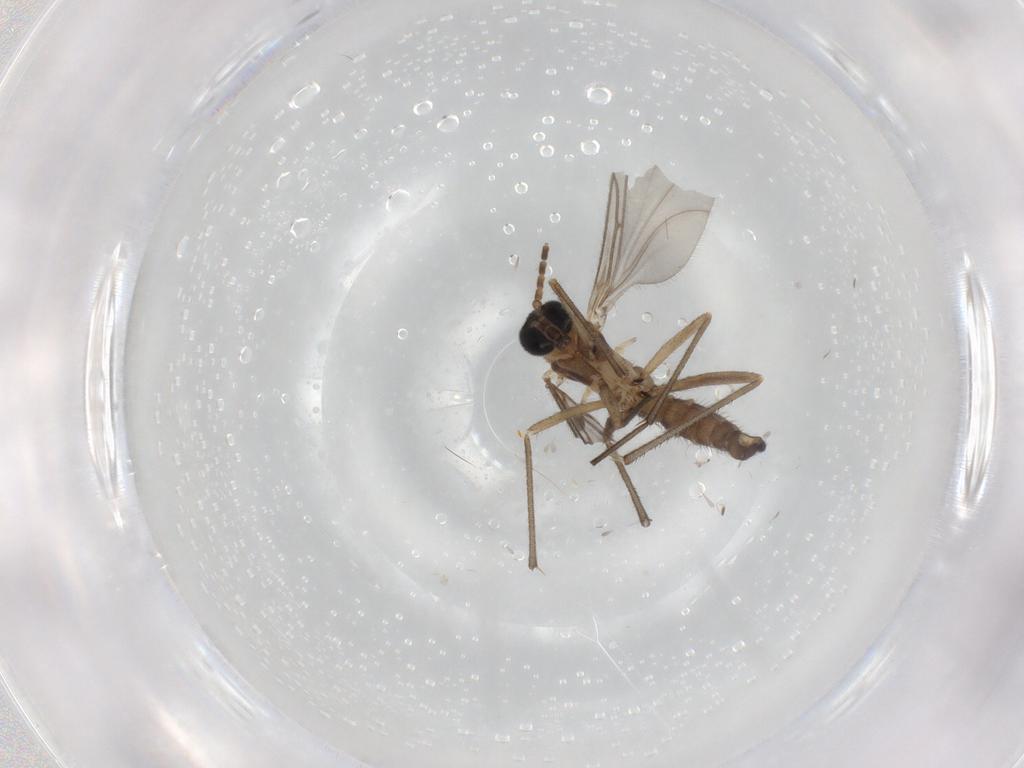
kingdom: Animalia
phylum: Arthropoda
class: Insecta
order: Diptera
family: Sciaridae
